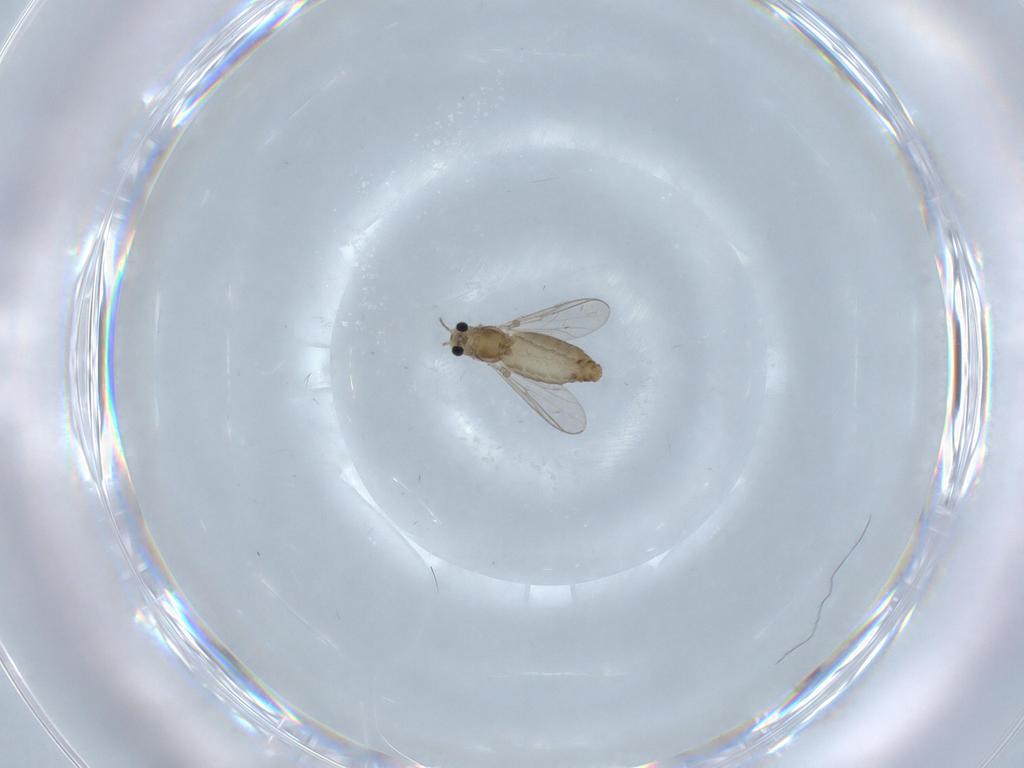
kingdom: Animalia
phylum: Arthropoda
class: Insecta
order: Diptera
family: Chironomidae
